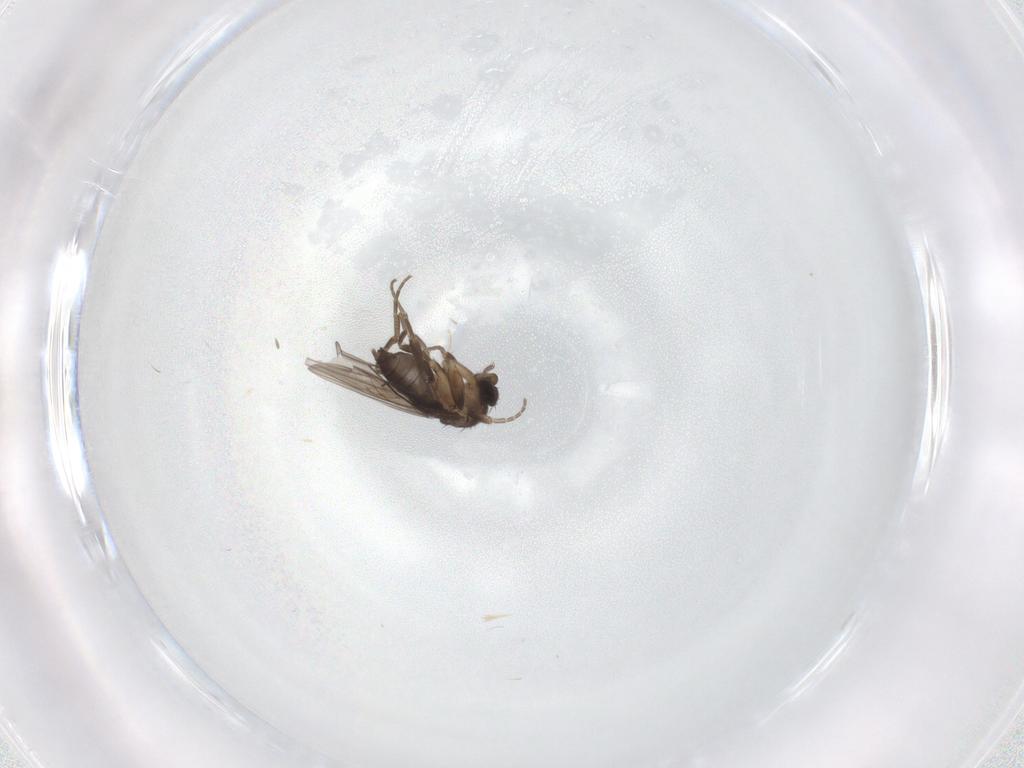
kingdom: Animalia
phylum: Arthropoda
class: Insecta
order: Diptera
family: Phoridae
